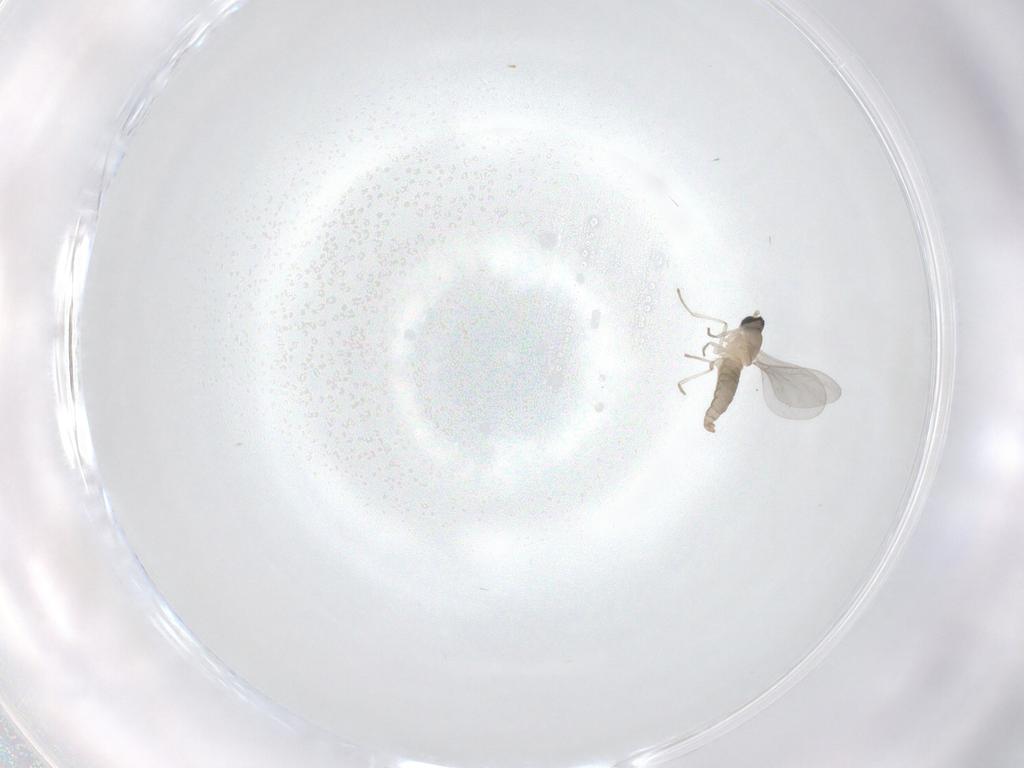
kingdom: Animalia
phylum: Arthropoda
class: Insecta
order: Diptera
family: Cecidomyiidae
